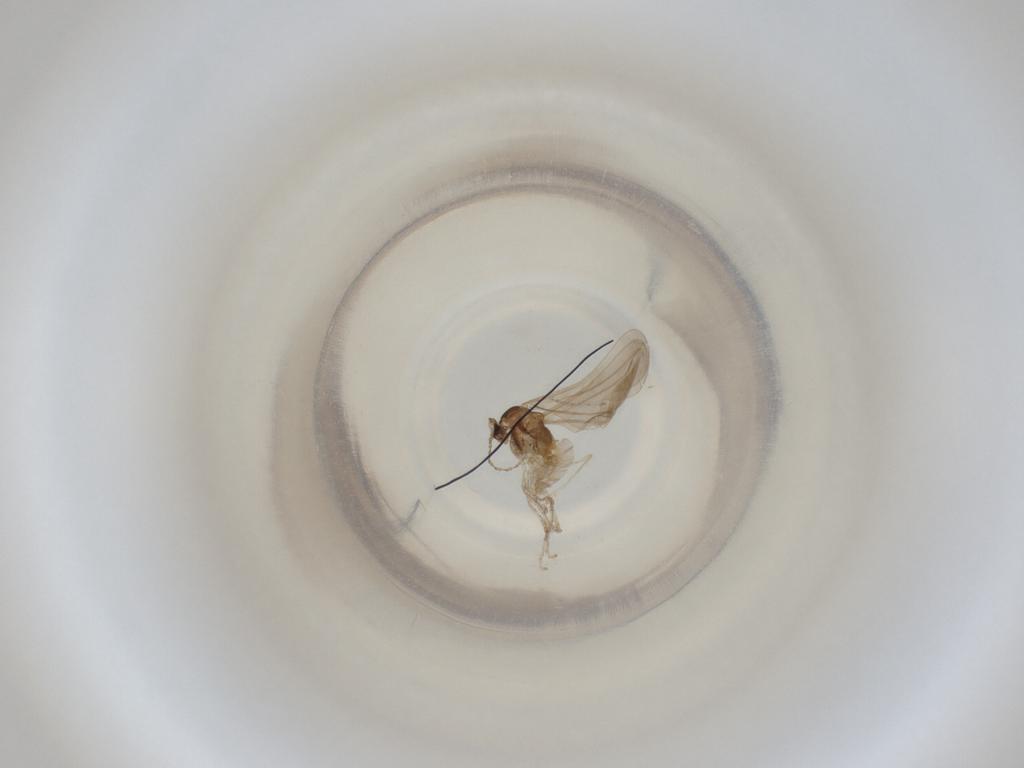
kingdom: Animalia
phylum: Arthropoda
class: Insecta
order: Diptera
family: Cecidomyiidae
